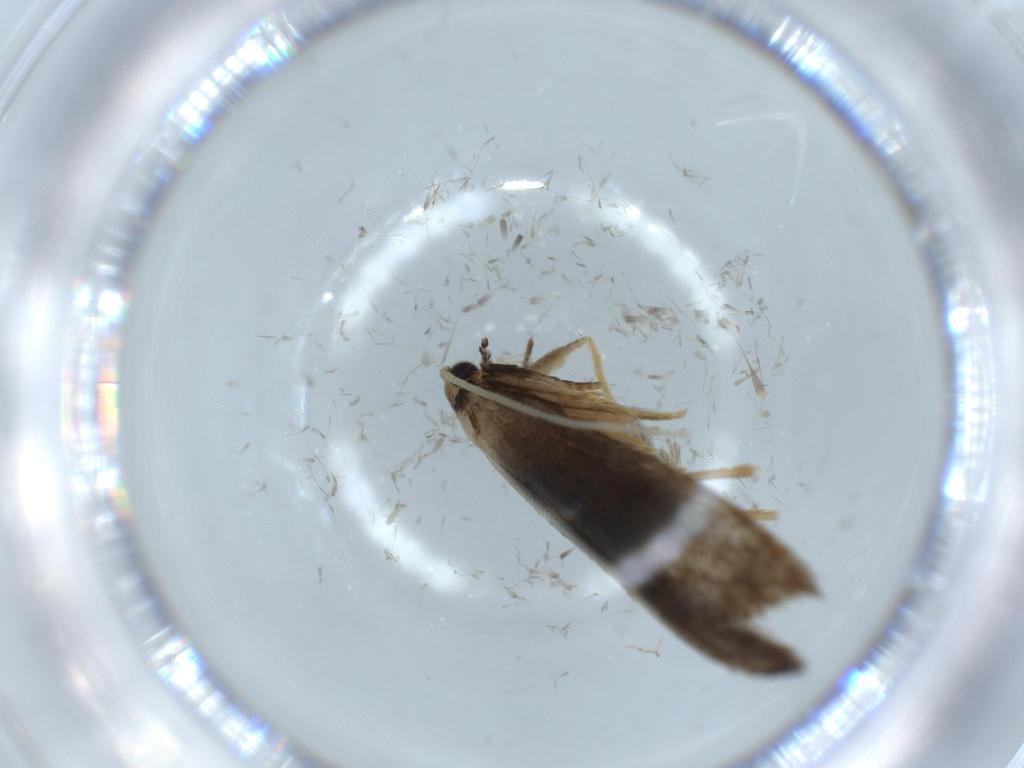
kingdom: Animalia
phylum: Arthropoda
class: Insecta
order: Lepidoptera
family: Tineidae
